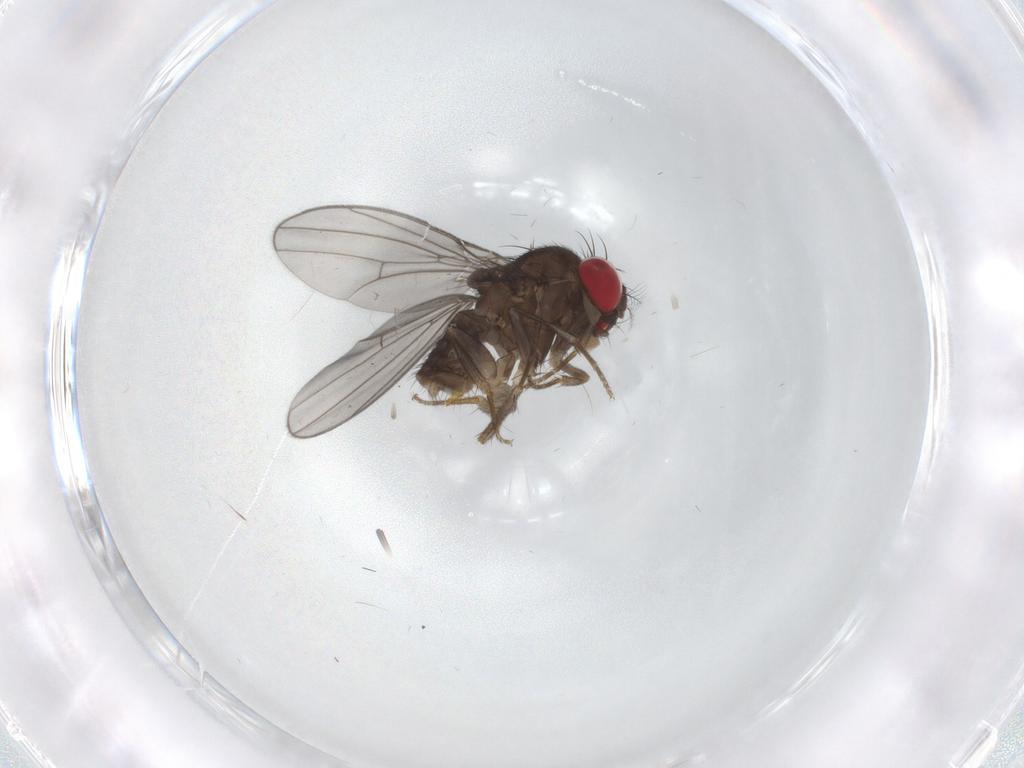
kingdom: Animalia
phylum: Arthropoda
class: Insecta
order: Diptera
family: Drosophilidae
